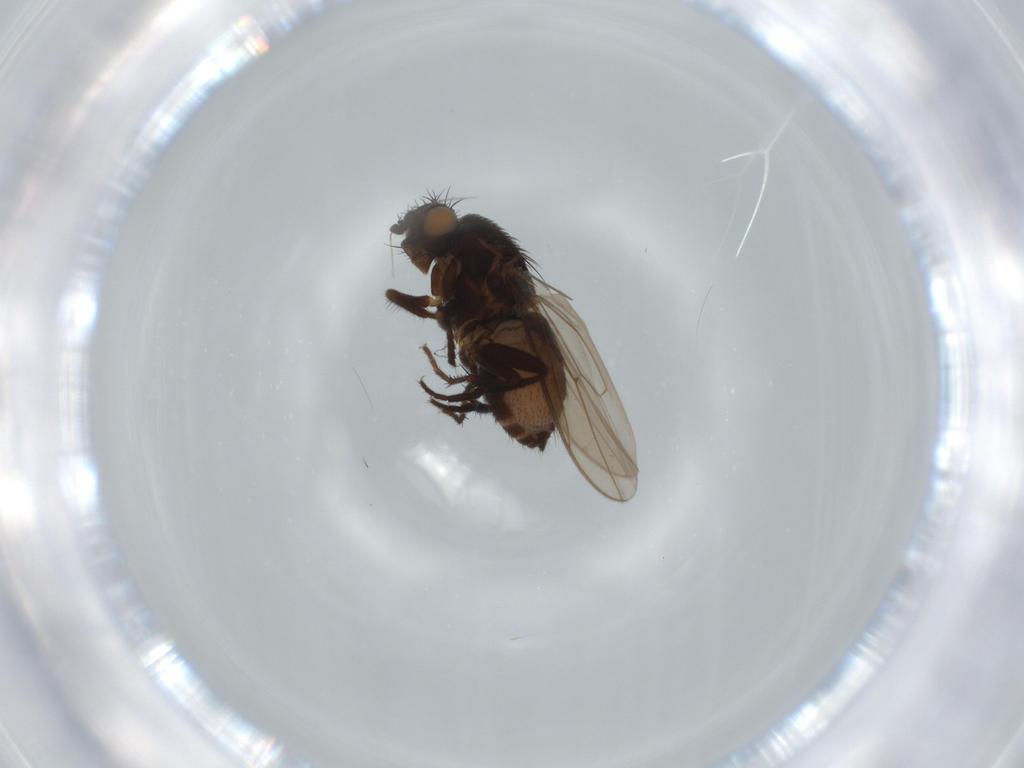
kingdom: Animalia
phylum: Arthropoda
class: Insecta
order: Diptera
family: Sphaeroceridae
